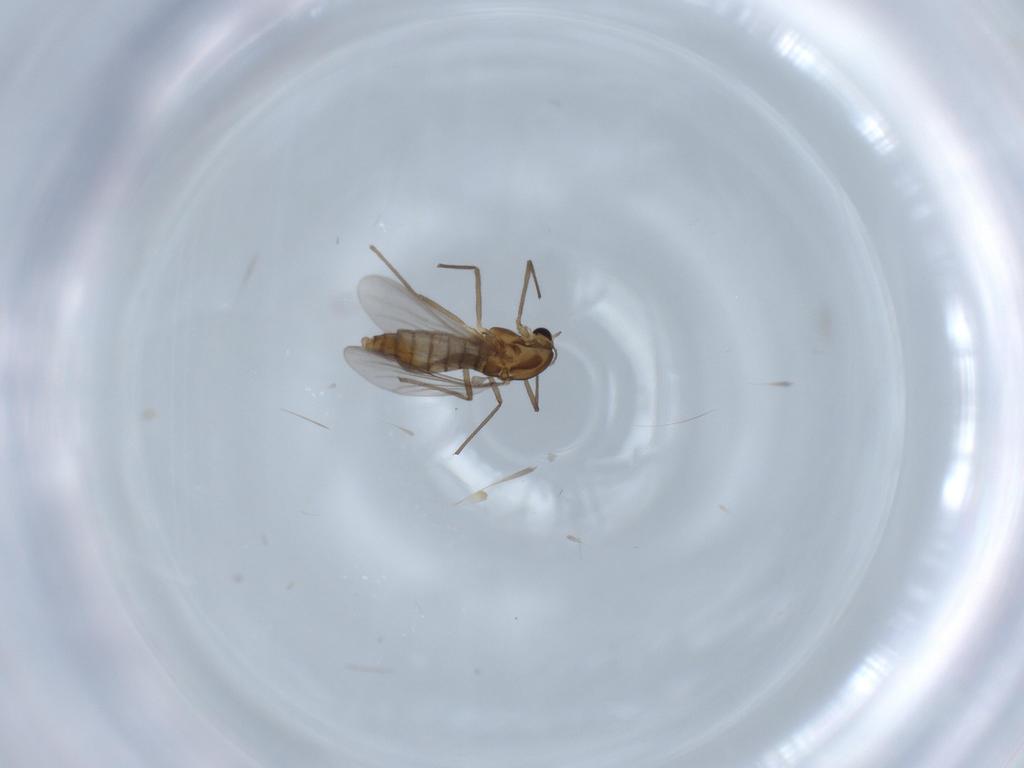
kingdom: Animalia
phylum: Arthropoda
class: Insecta
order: Diptera
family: Chironomidae
